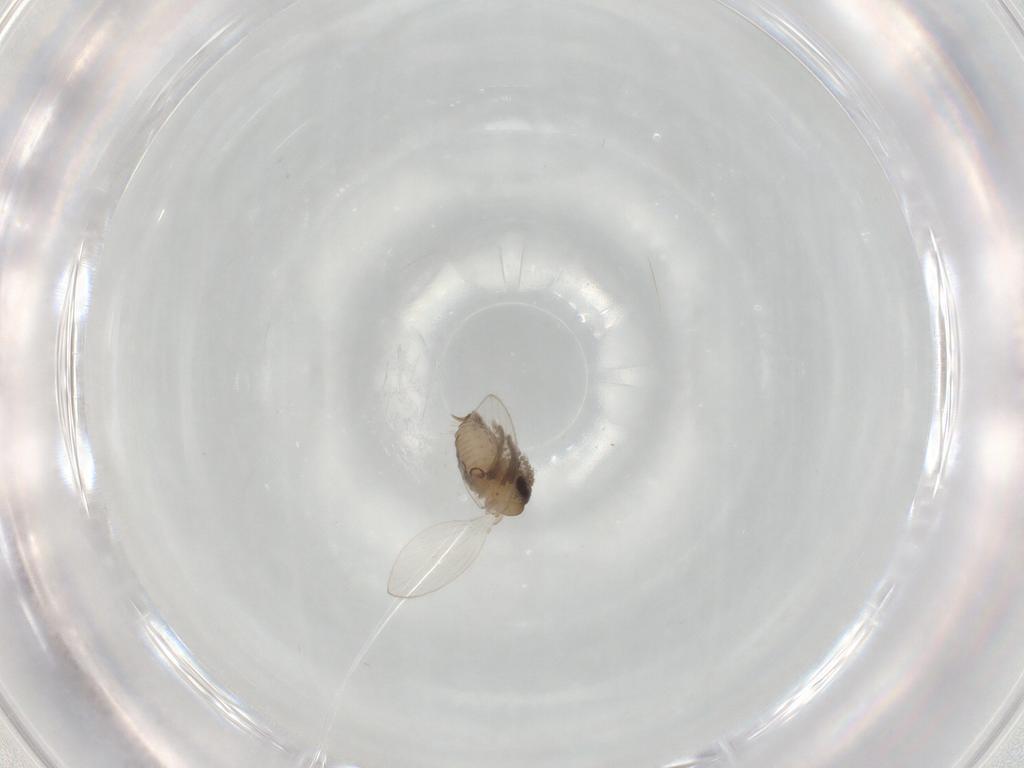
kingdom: Animalia
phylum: Arthropoda
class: Insecta
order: Diptera
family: Psychodidae
